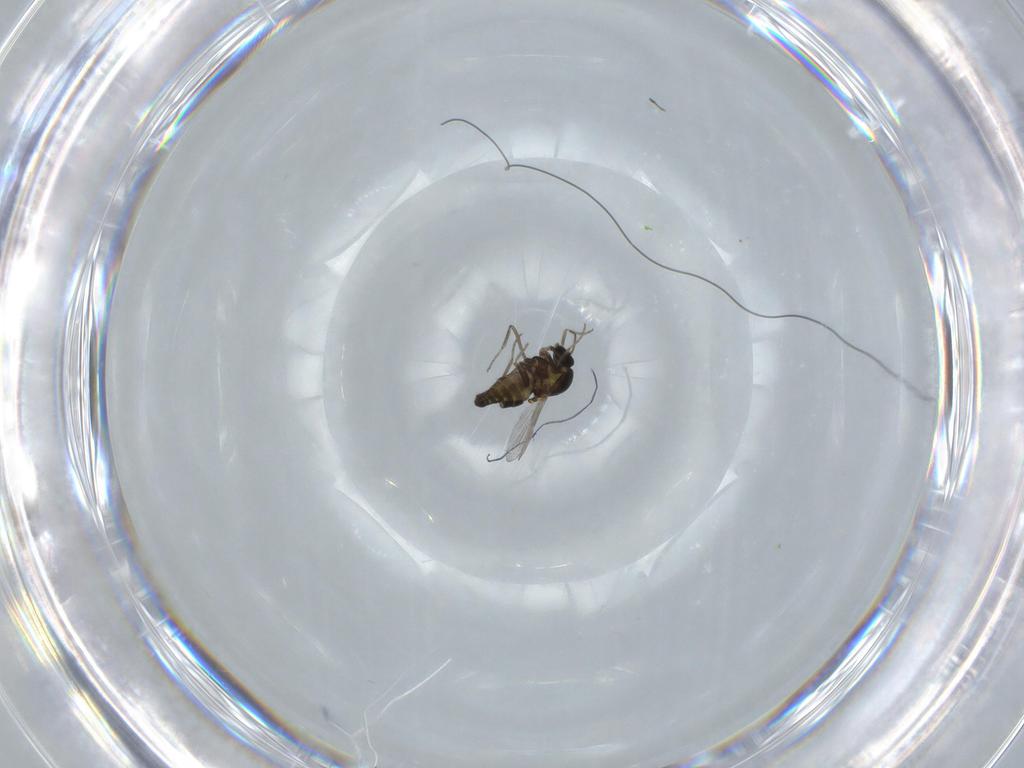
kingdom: Animalia
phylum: Arthropoda
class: Insecta
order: Diptera
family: Ceratopogonidae
